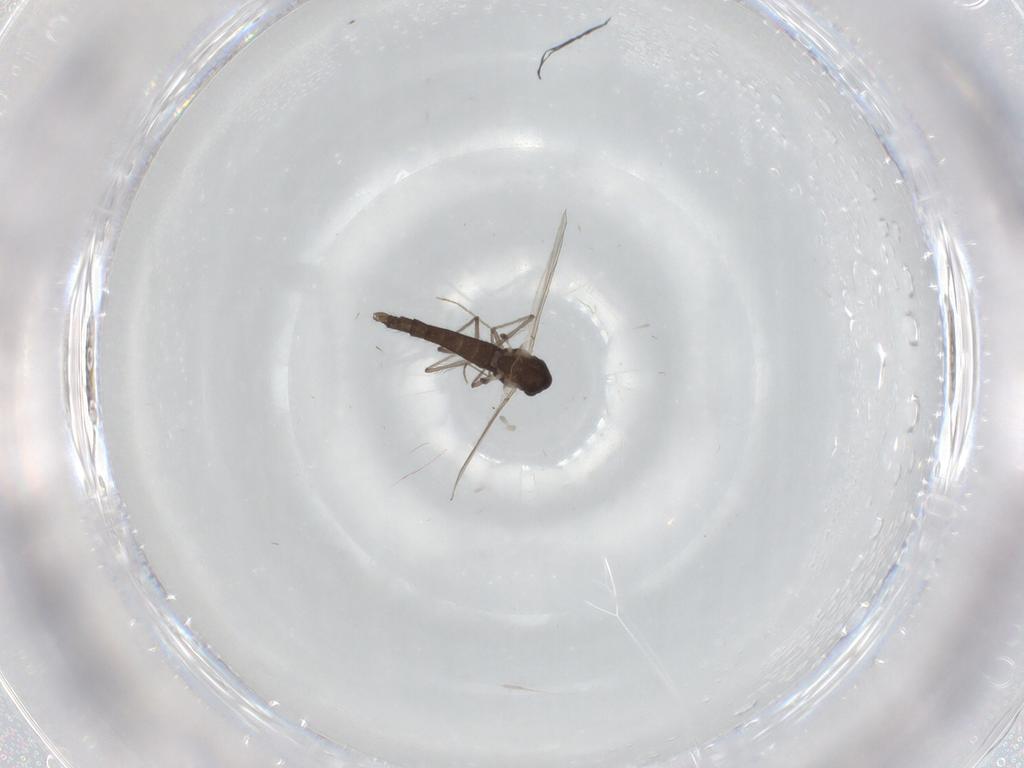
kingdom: Animalia
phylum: Arthropoda
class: Insecta
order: Diptera
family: Chironomidae
